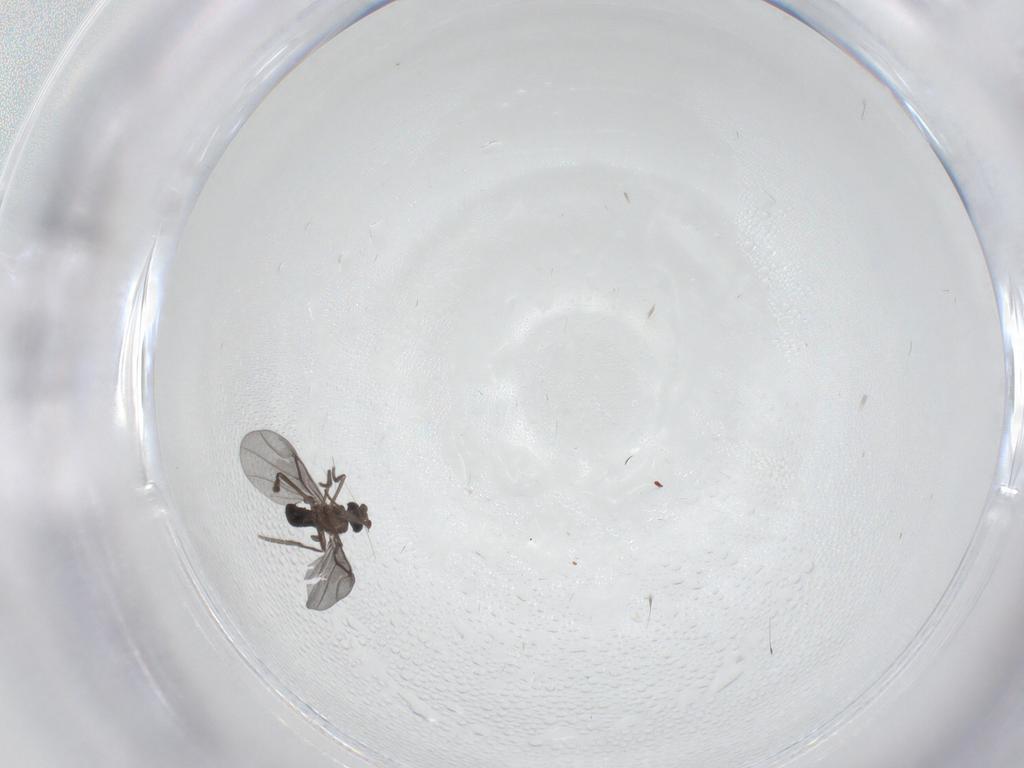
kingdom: Animalia
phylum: Arthropoda
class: Insecta
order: Diptera
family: Phoridae
